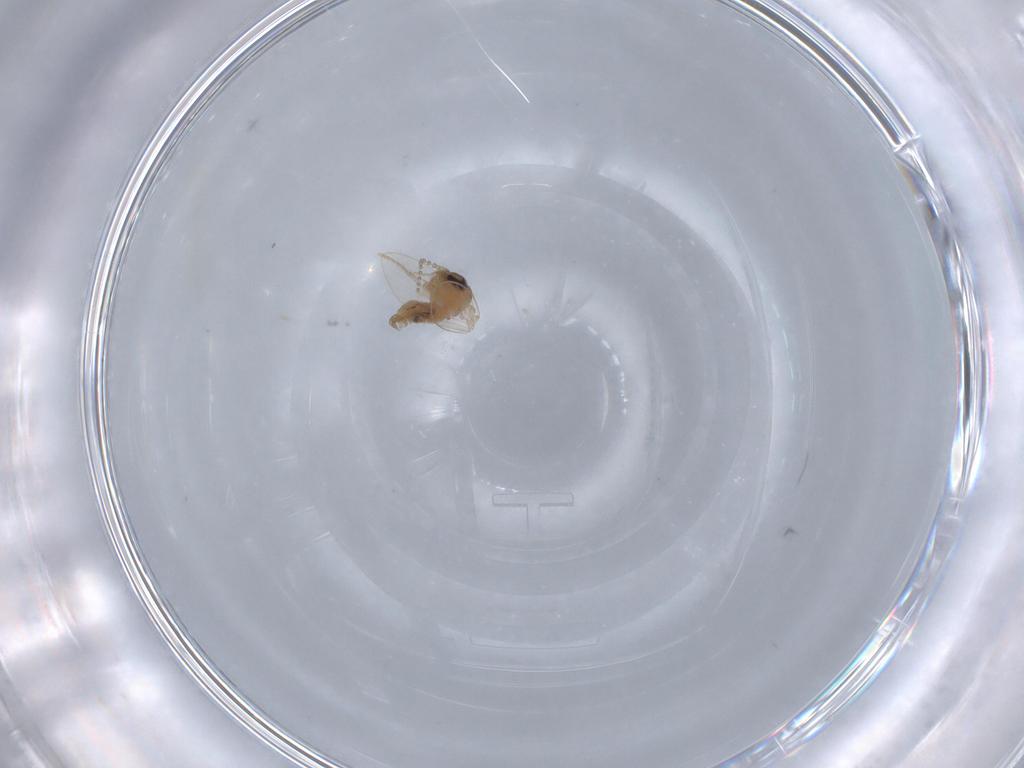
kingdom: Animalia
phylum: Arthropoda
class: Insecta
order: Diptera
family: Psychodidae
